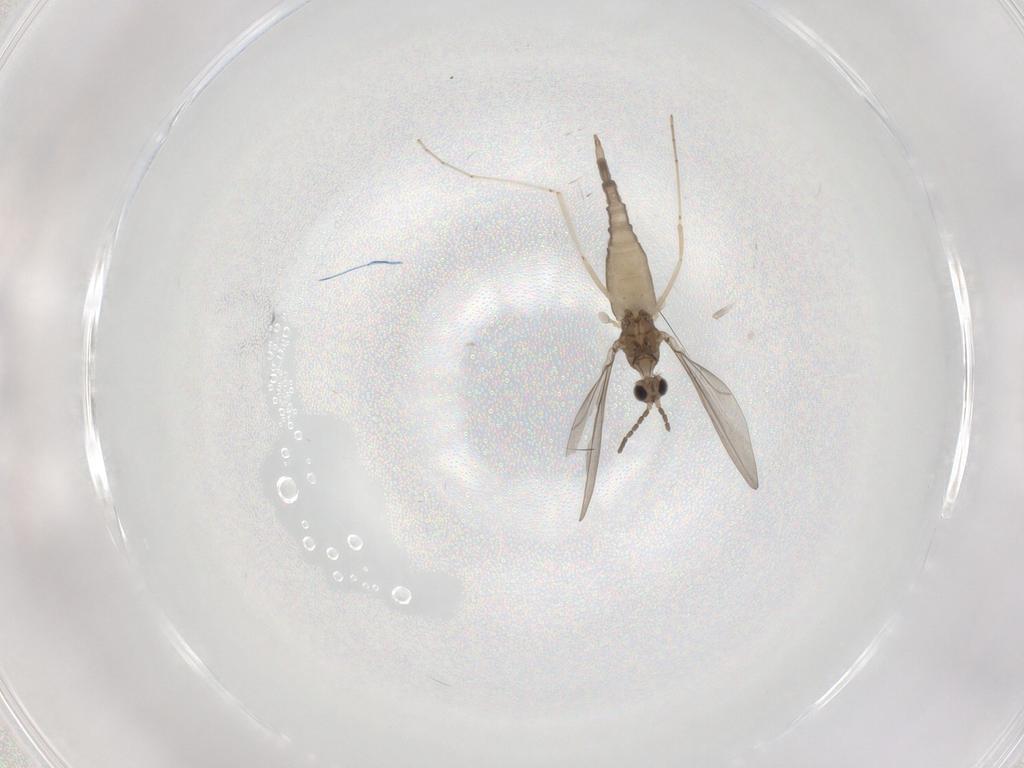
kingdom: Animalia
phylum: Arthropoda
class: Insecta
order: Diptera
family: Cecidomyiidae
